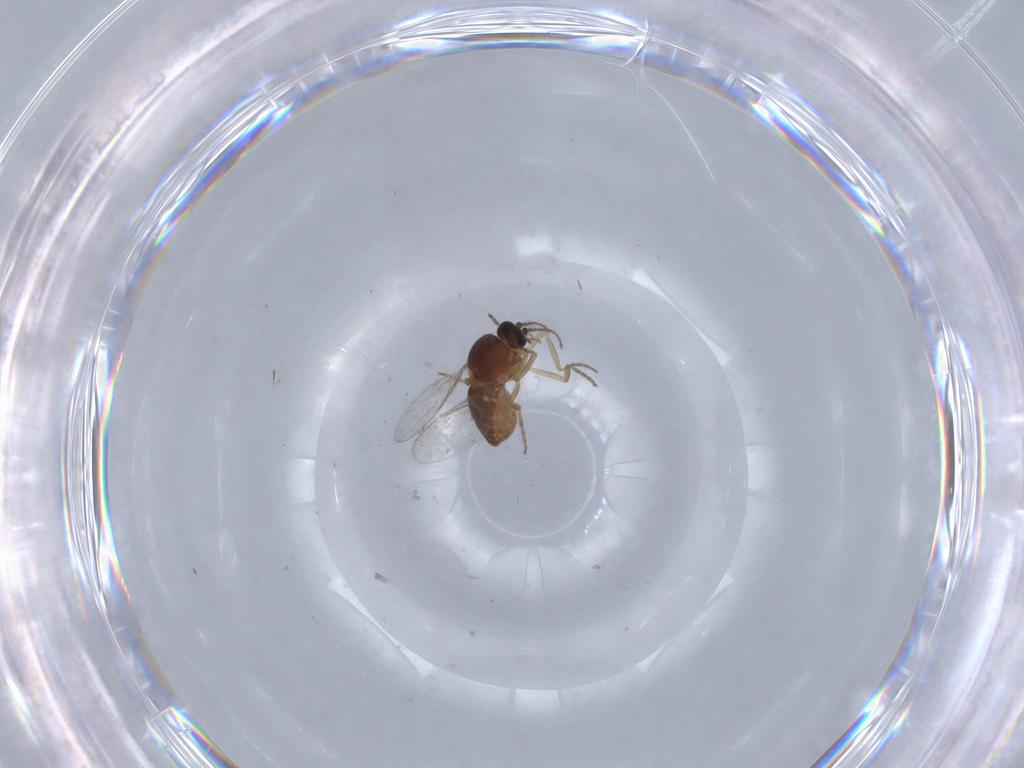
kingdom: Animalia
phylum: Arthropoda
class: Insecta
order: Diptera
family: Ceratopogonidae
